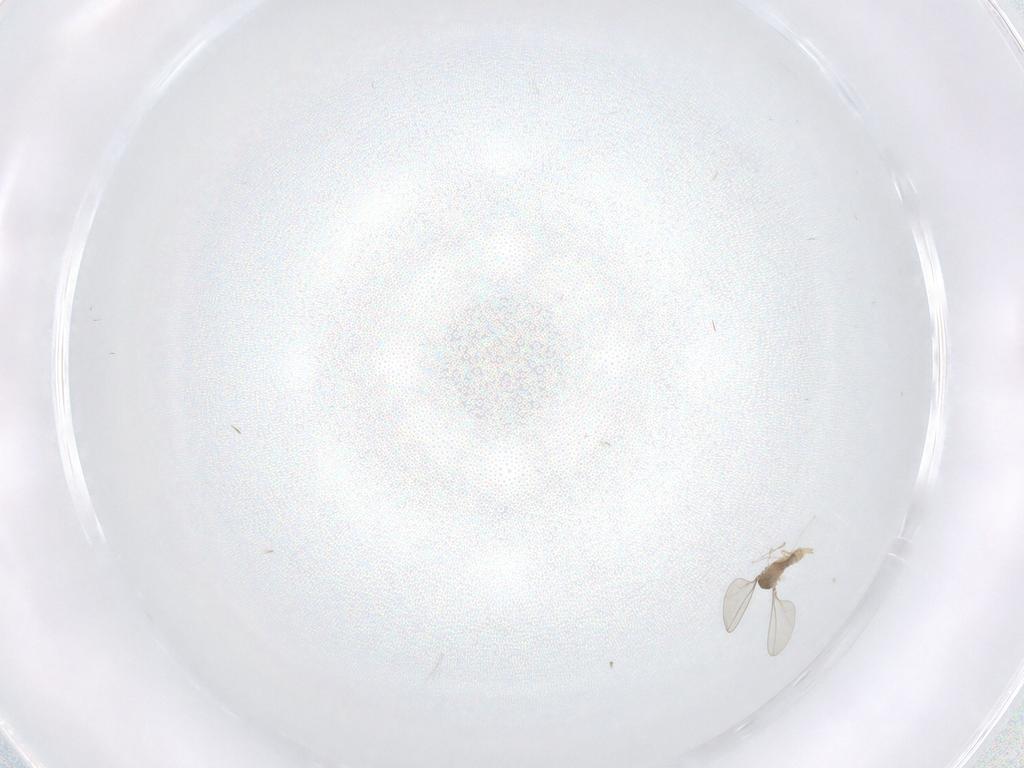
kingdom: Animalia
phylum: Arthropoda
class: Insecta
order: Diptera
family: Cecidomyiidae
